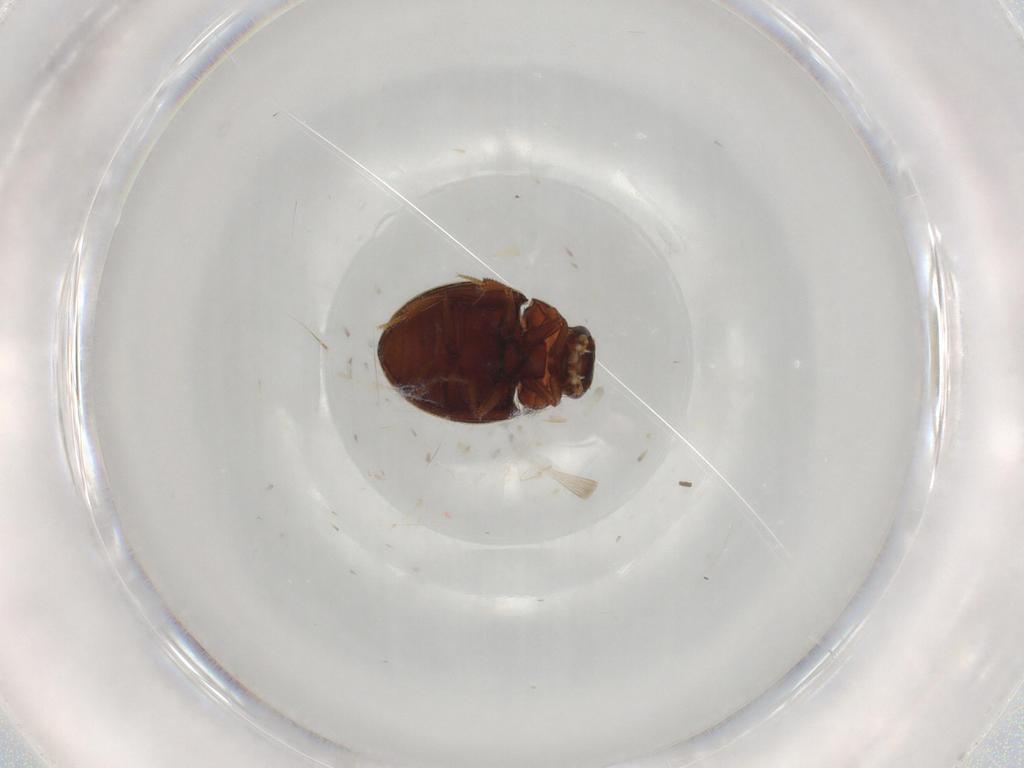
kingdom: Animalia
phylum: Arthropoda
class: Insecta
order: Coleoptera
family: Hydrophilidae
